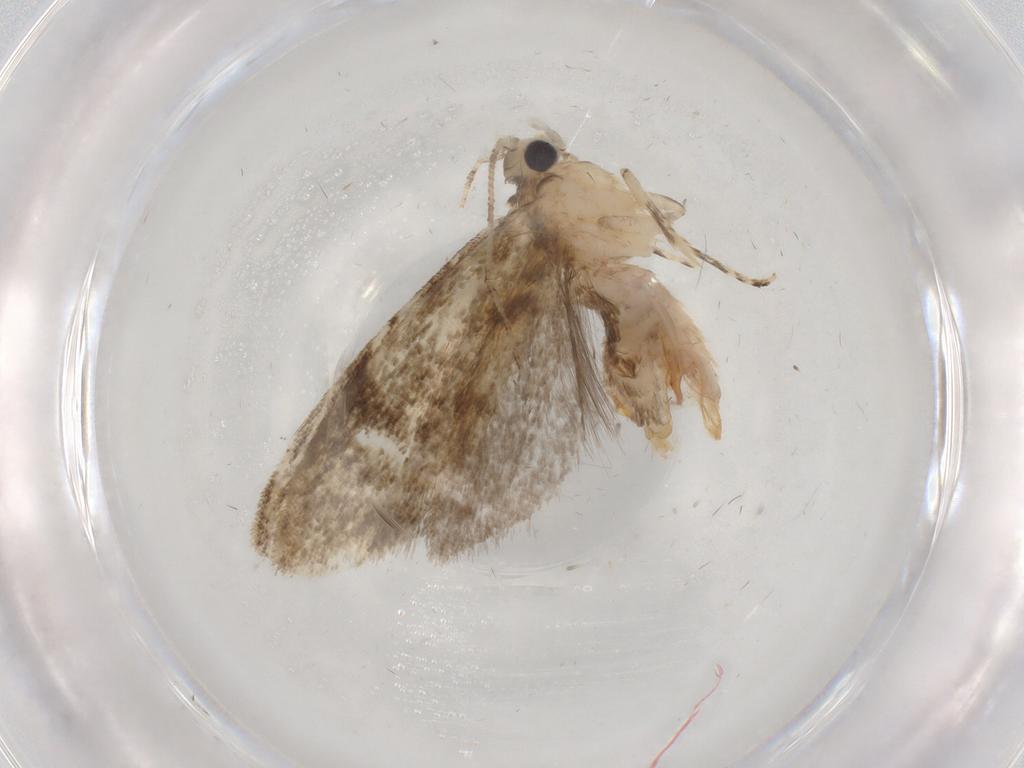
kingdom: Animalia
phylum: Arthropoda
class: Insecta
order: Lepidoptera
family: Tineidae
